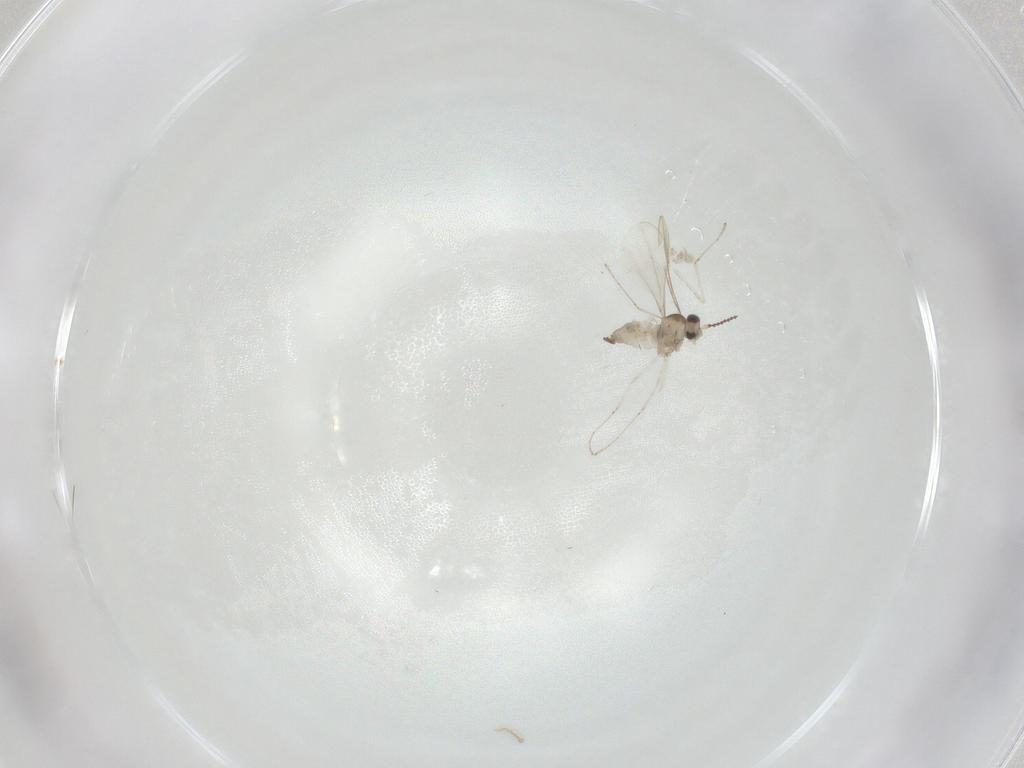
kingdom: Animalia
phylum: Arthropoda
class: Insecta
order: Diptera
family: Cecidomyiidae
